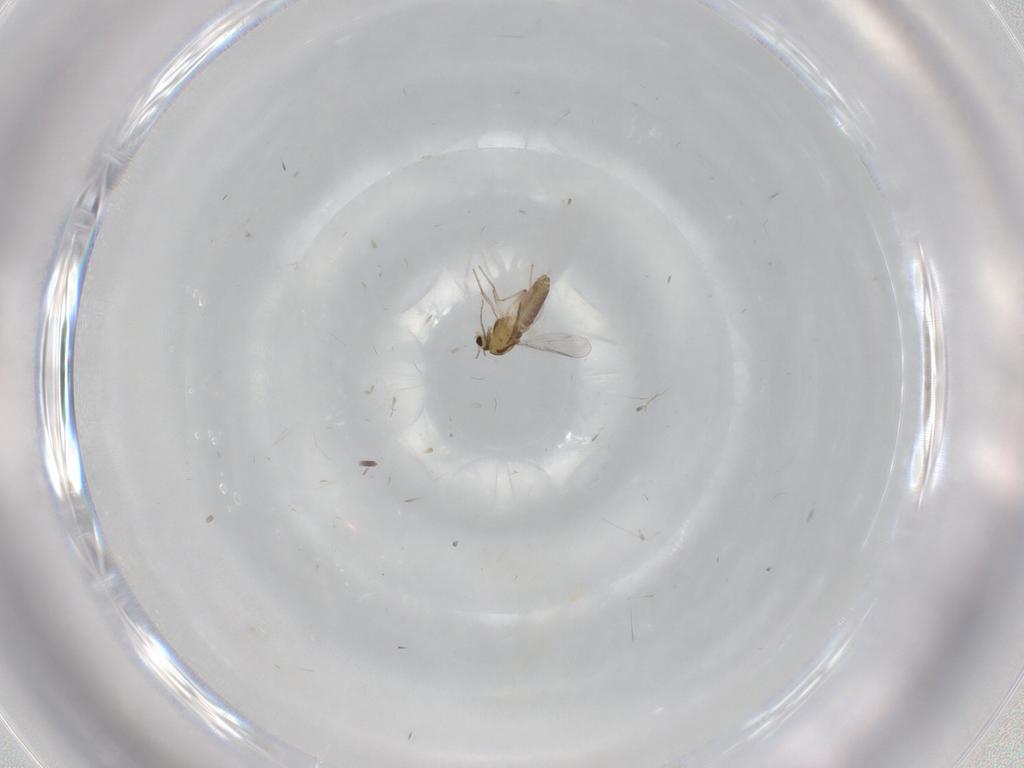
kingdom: Animalia
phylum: Arthropoda
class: Insecta
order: Diptera
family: Chironomidae
